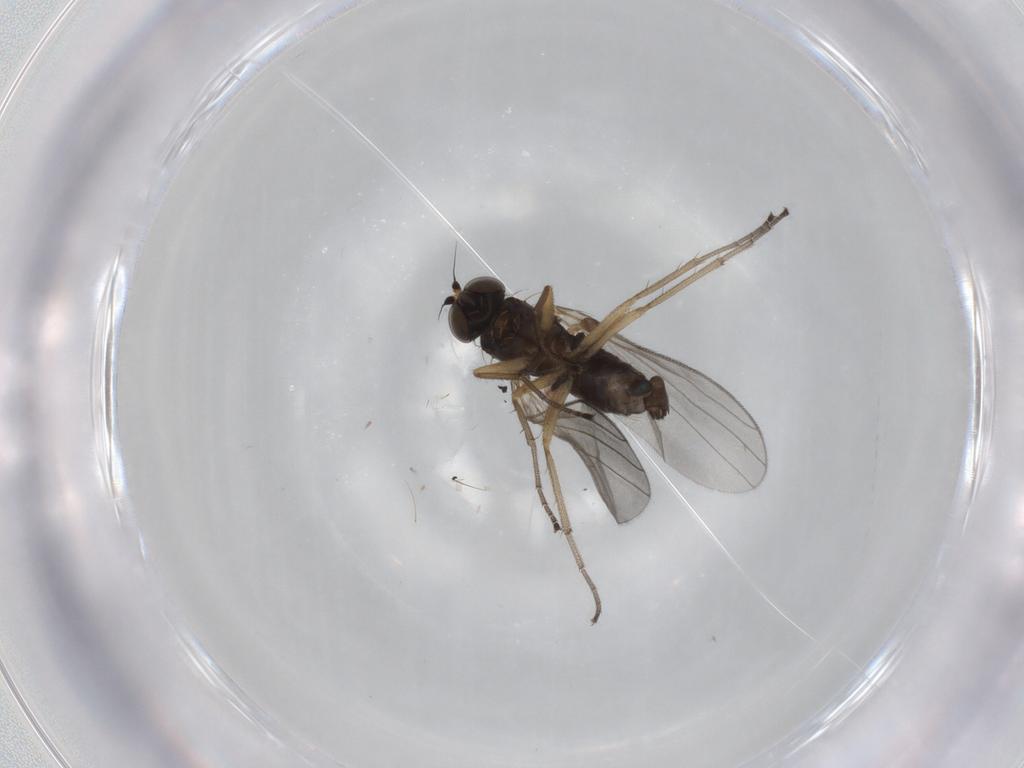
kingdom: Animalia
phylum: Arthropoda
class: Insecta
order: Diptera
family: Dolichopodidae
